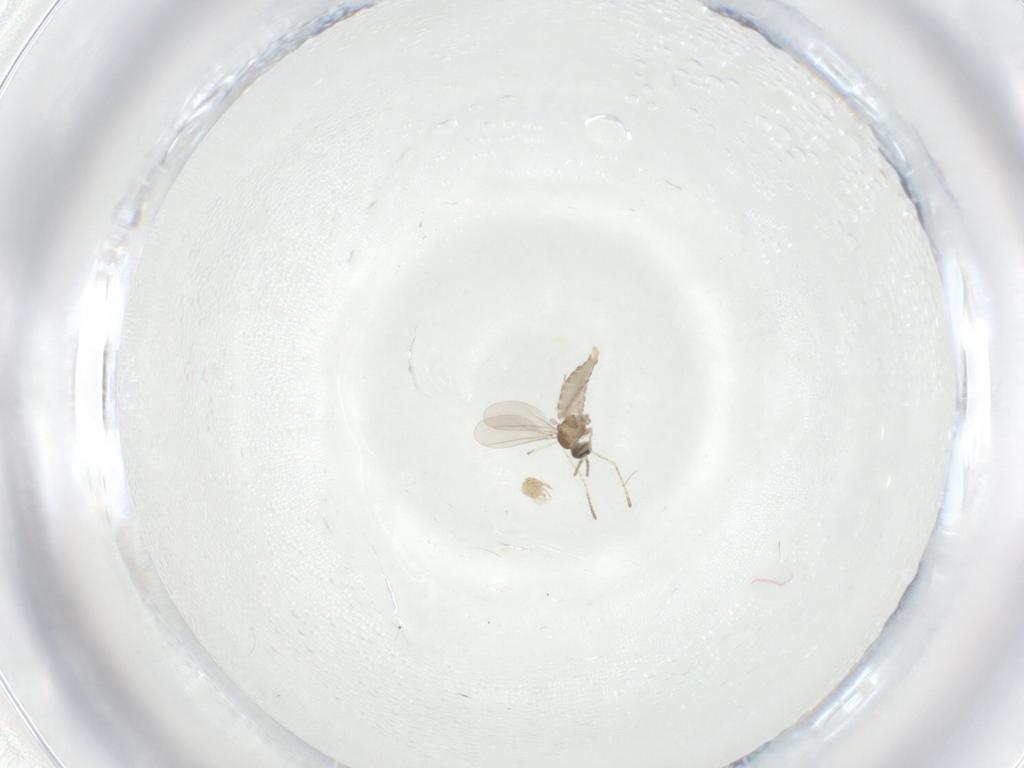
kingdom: Animalia
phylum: Arthropoda
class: Insecta
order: Diptera
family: Cecidomyiidae
